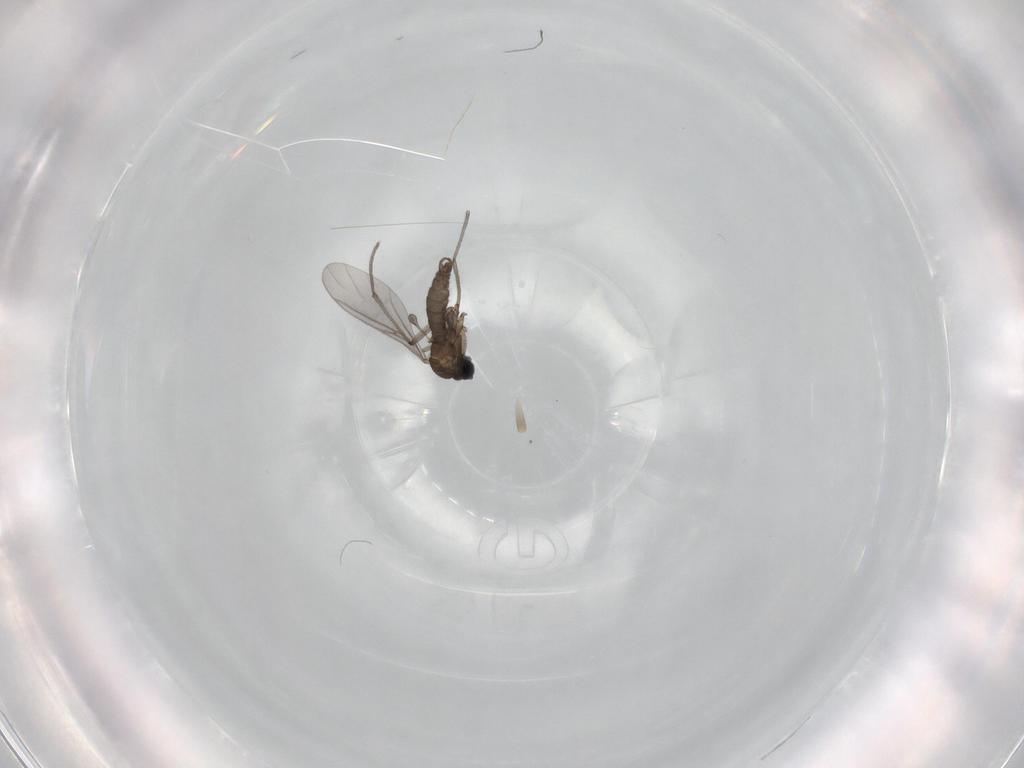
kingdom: Animalia
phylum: Arthropoda
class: Insecta
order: Diptera
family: Sciaridae
